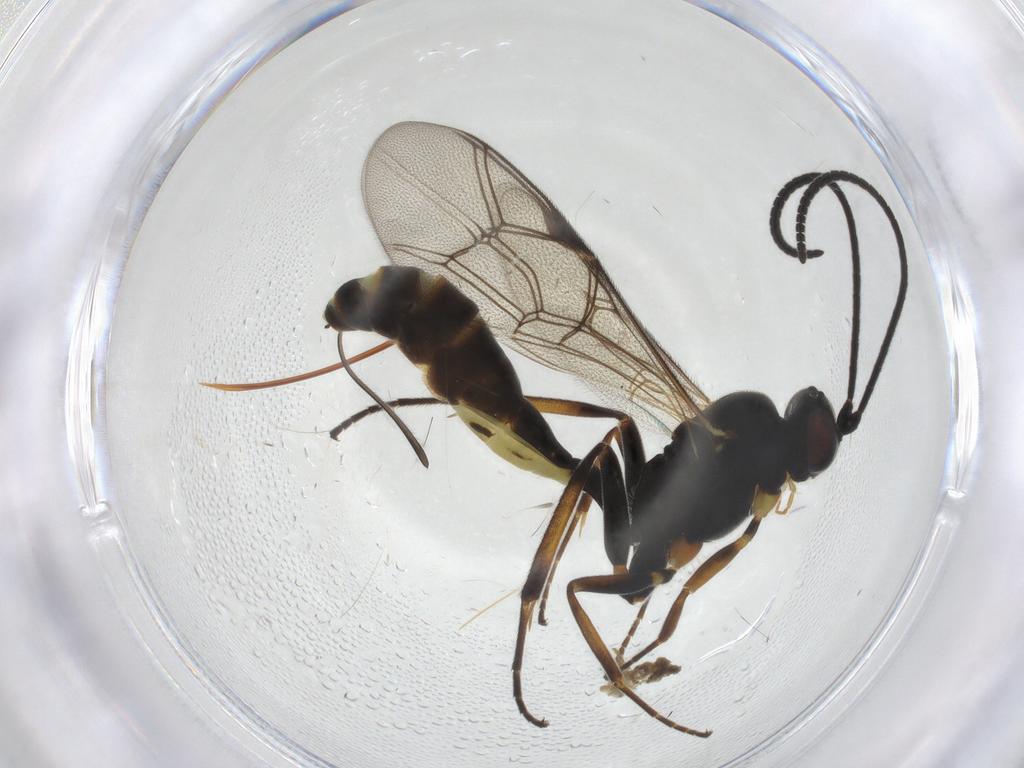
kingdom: Animalia
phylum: Arthropoda
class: Insecta
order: Hymenoptera
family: Ichneumonidae
